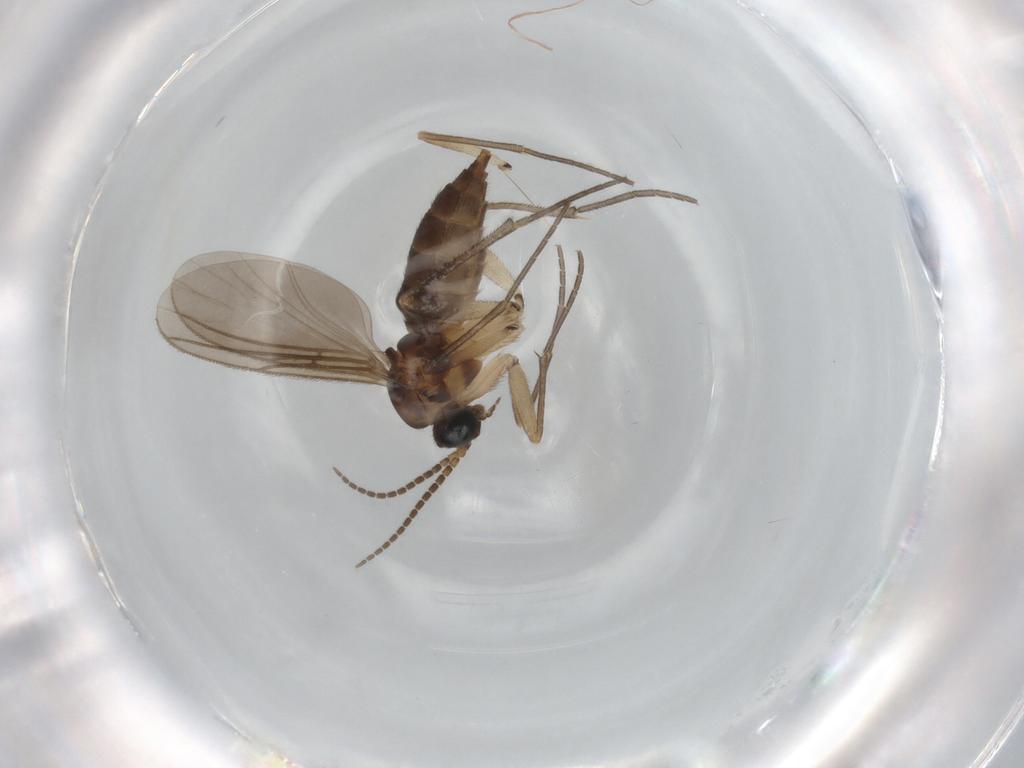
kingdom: Animalia
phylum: Arthropoda
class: Insecta
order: Diptera
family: Sciaridae
